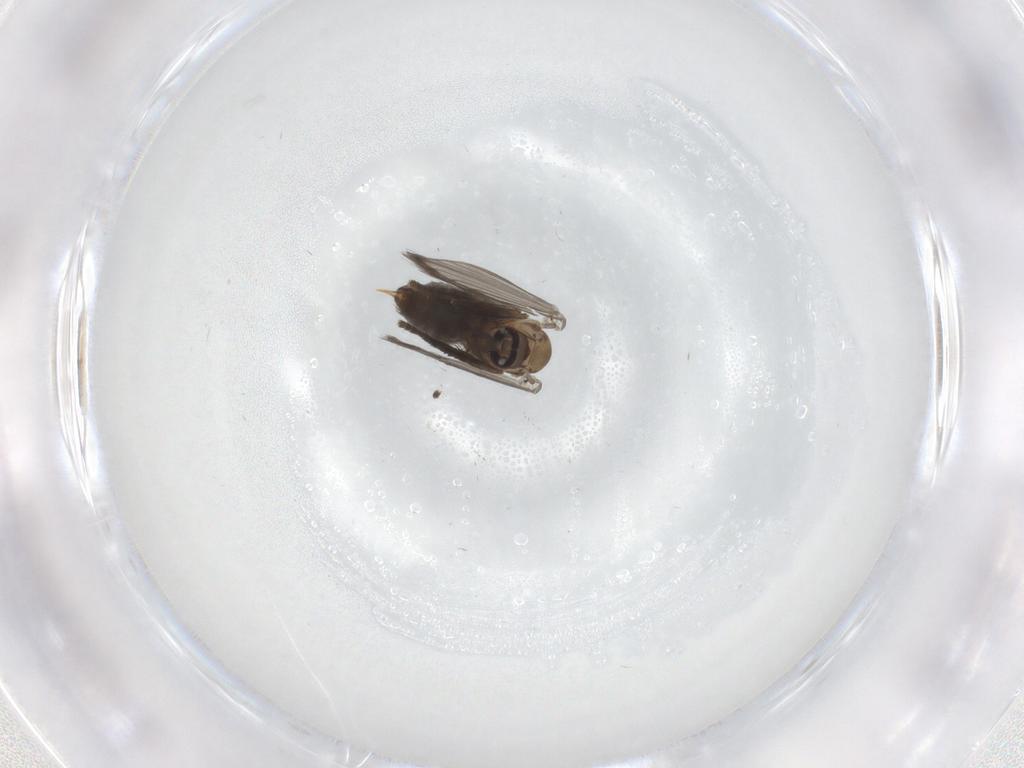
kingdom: Animalia
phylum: Arthropoda
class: Insecta
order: Diptera
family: Psychodidae
